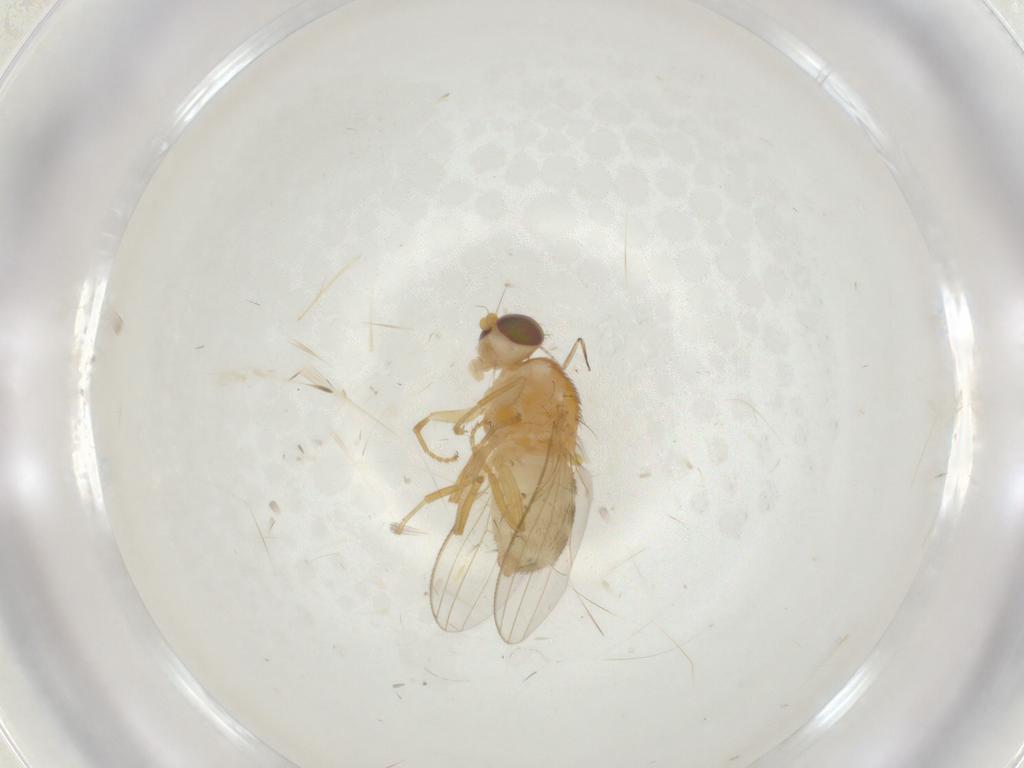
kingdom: Animalia
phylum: Arthropoda
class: Insecta
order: Diptera
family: Chyromyidae
